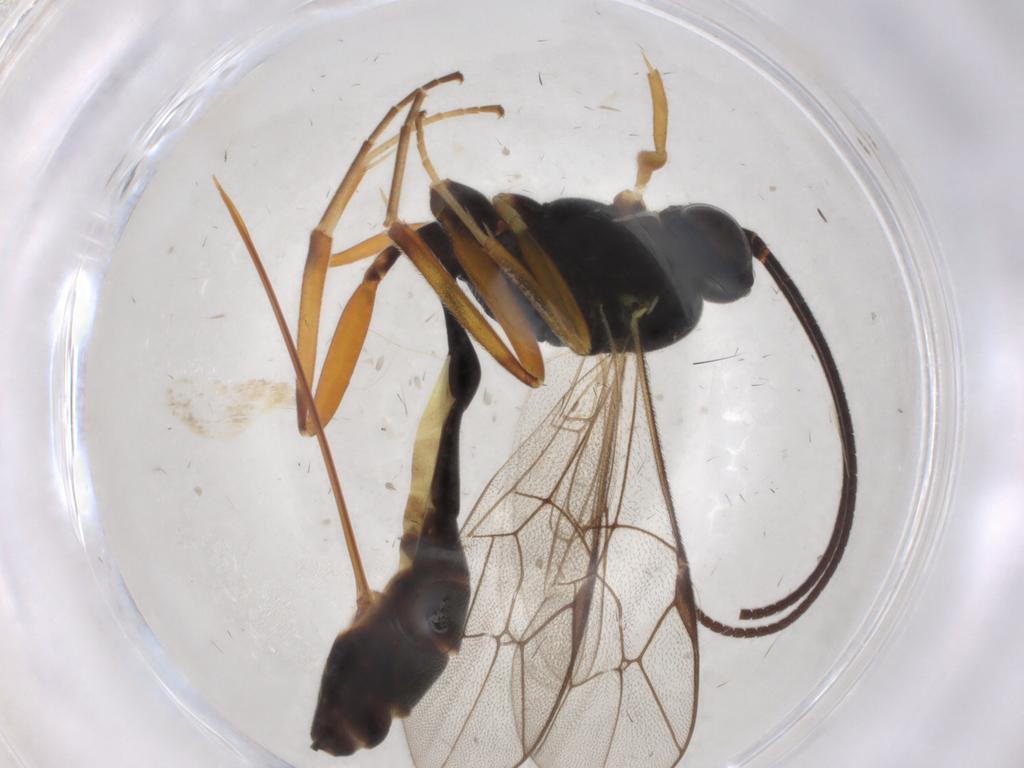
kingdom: Animalia
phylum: Arthropoda
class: Insecta
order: Hymenoptera
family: Ichneumonidae
